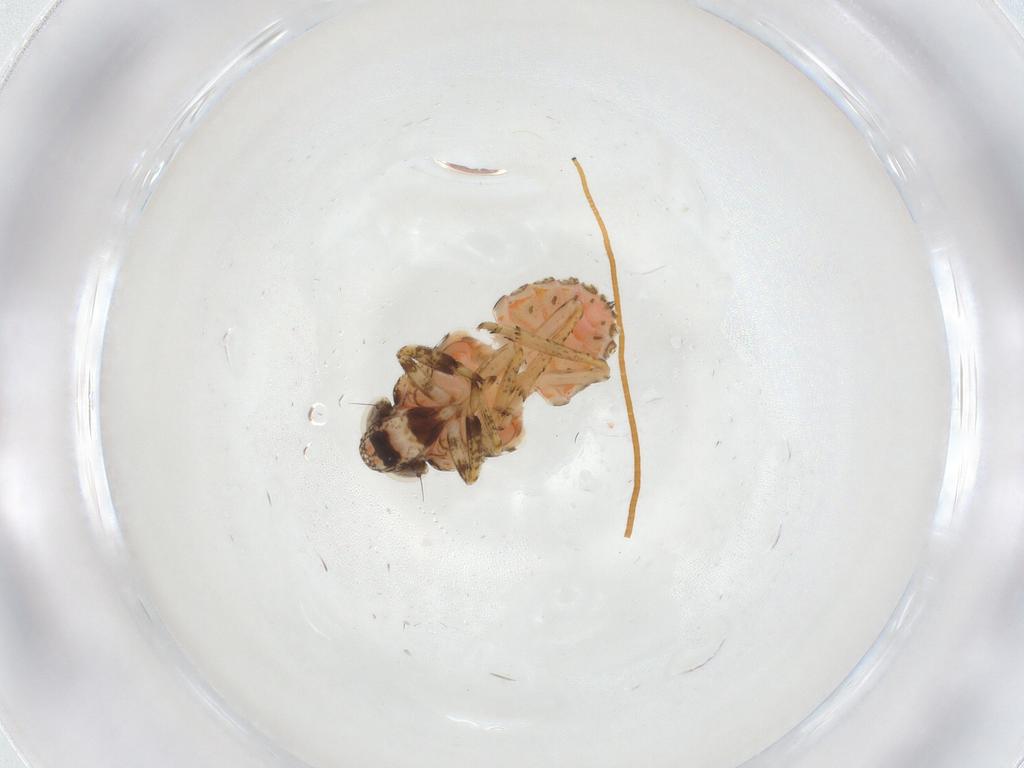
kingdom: Animalia
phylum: Arthropoda
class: Insecta
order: Hemiptera
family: Issidae
